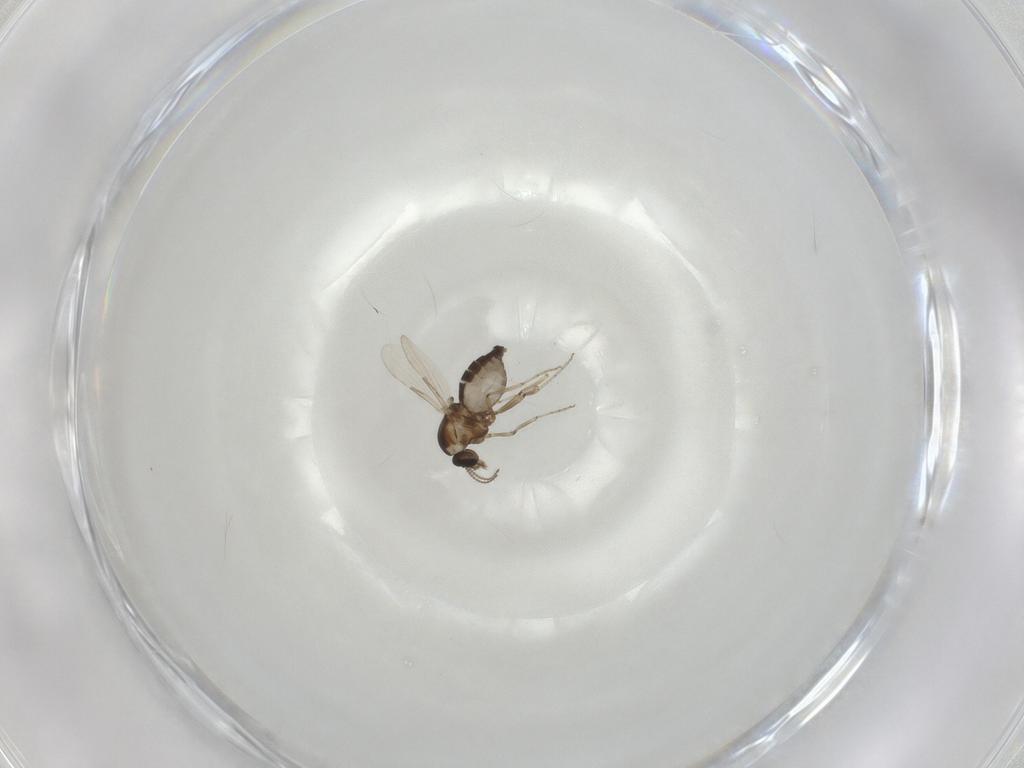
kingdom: Animalia
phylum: Arthropoda
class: Insecta
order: Diptera
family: Ceratopogonidae
